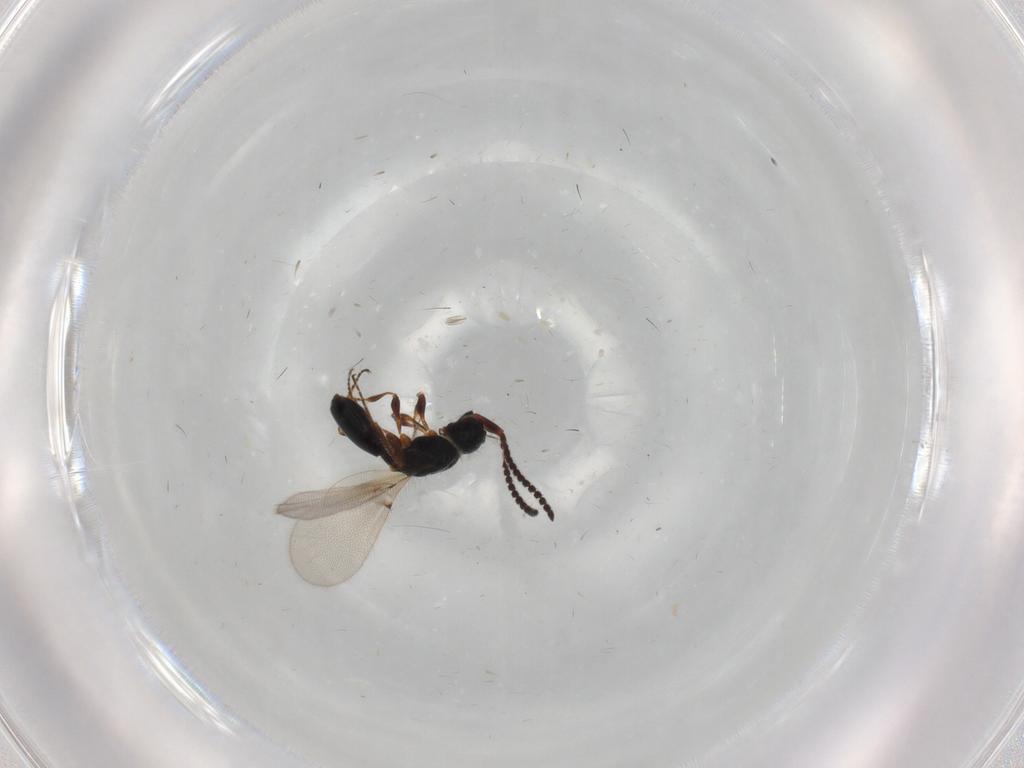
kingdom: Animalia
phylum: Arthropoda
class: Insecta
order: Hymenoptera
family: Diapriidae
